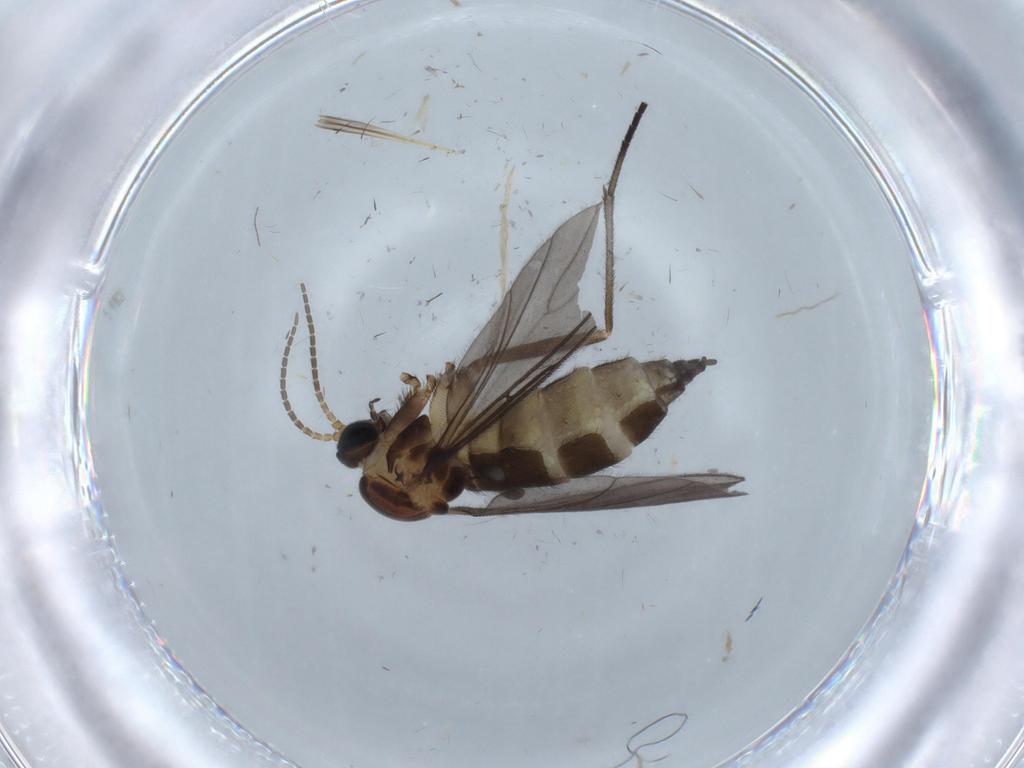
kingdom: Animalia
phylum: Arthropoda
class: Insecta
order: Diptera
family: Sciaridae
